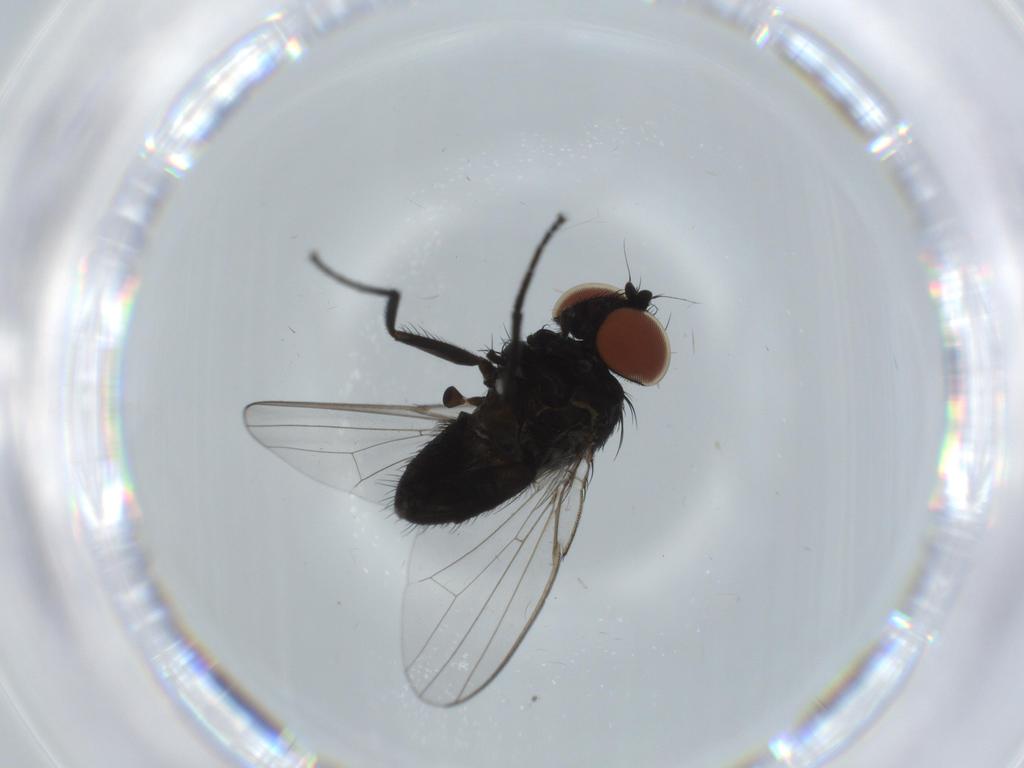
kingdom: Animalia
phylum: Arthropoda
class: Insecta
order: Diptera
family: Milichiidae
